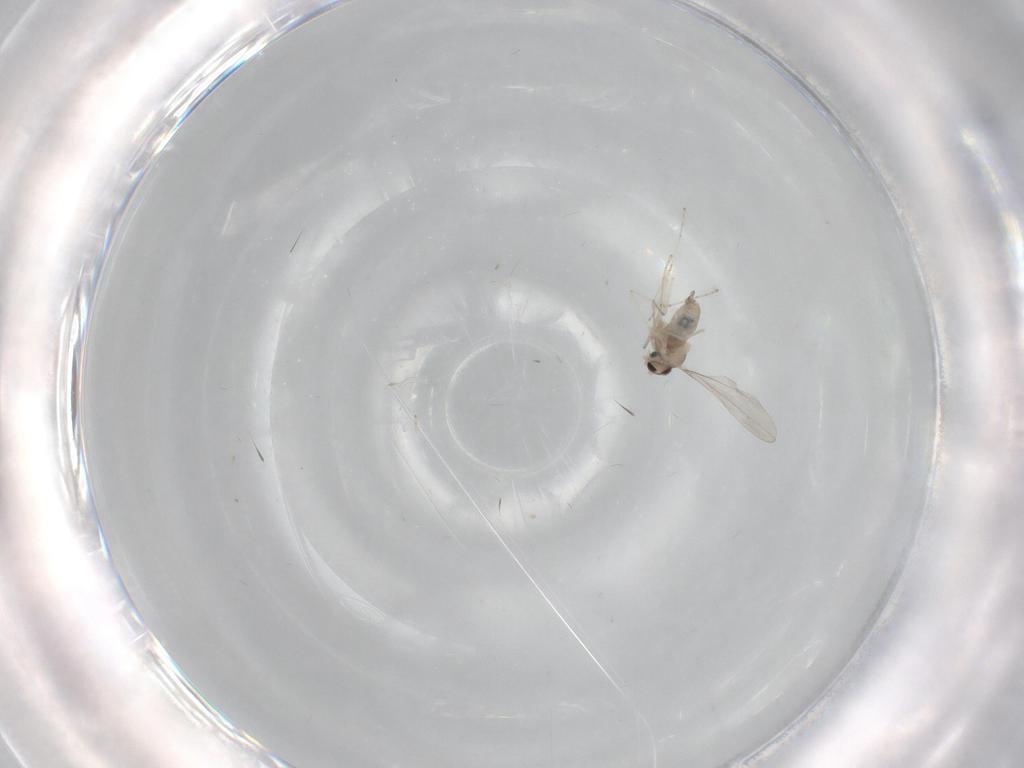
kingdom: Animalia
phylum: Arthropoda
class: Insecta
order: Diptera
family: Cecidomyiidae
